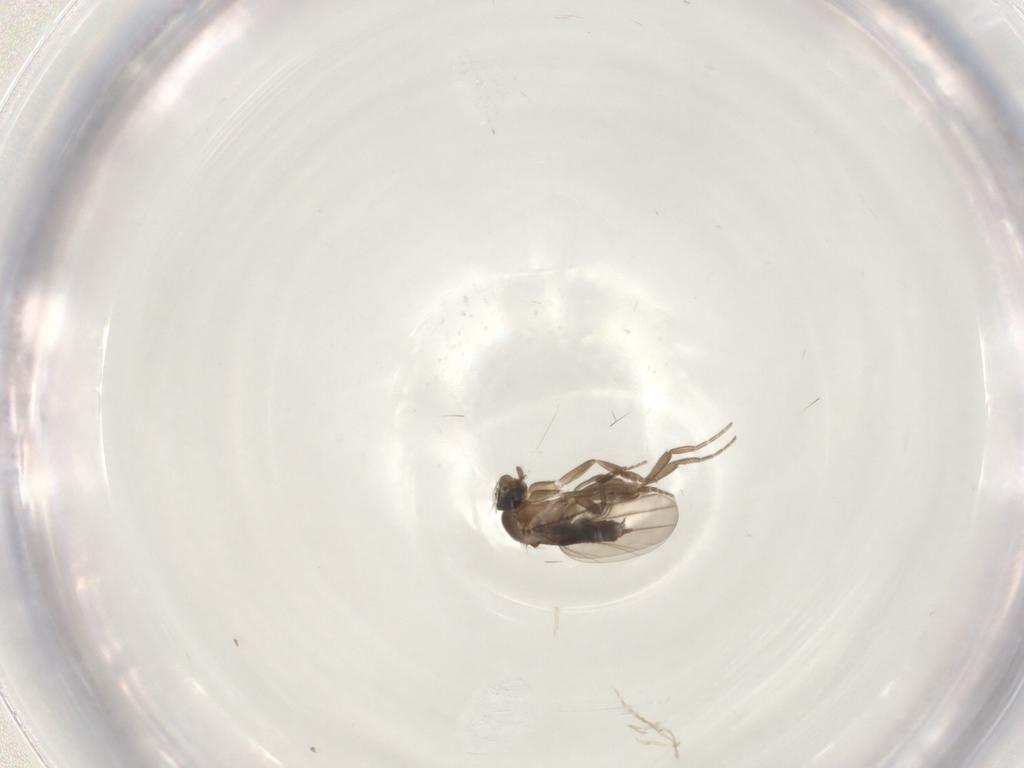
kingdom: Animalia
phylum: Arthropoda
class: Insecta
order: Diptera
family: Phoridae
